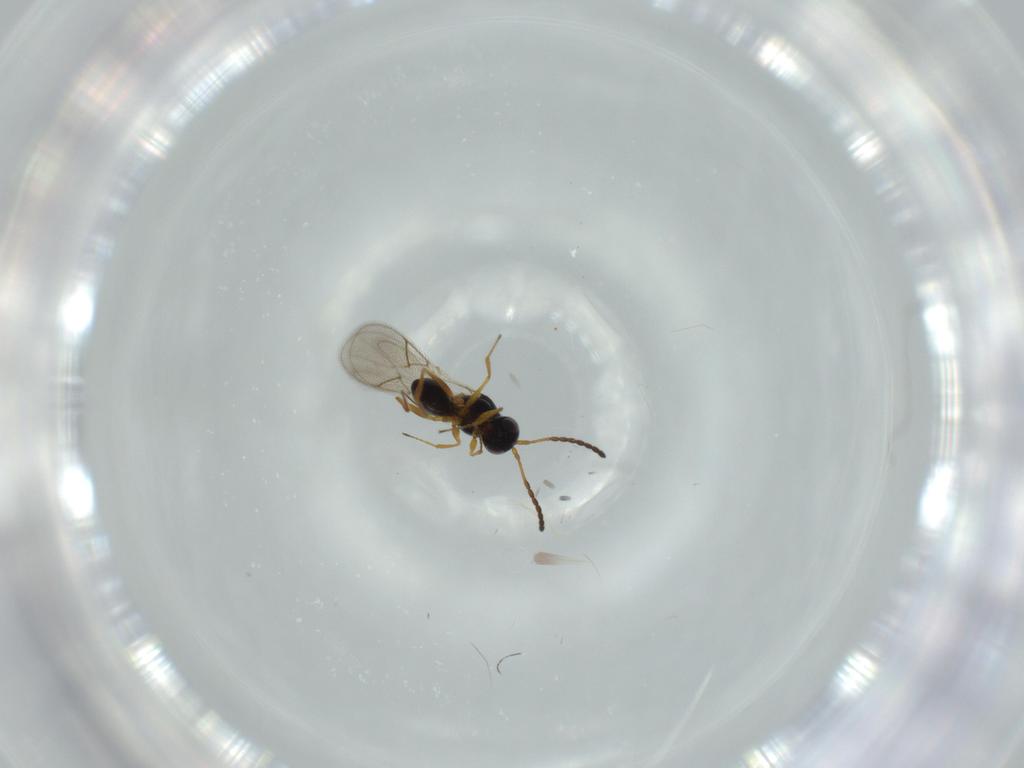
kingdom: Animalia
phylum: Arthropoda
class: Insecta
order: Hymenoptera
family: Figitidae
